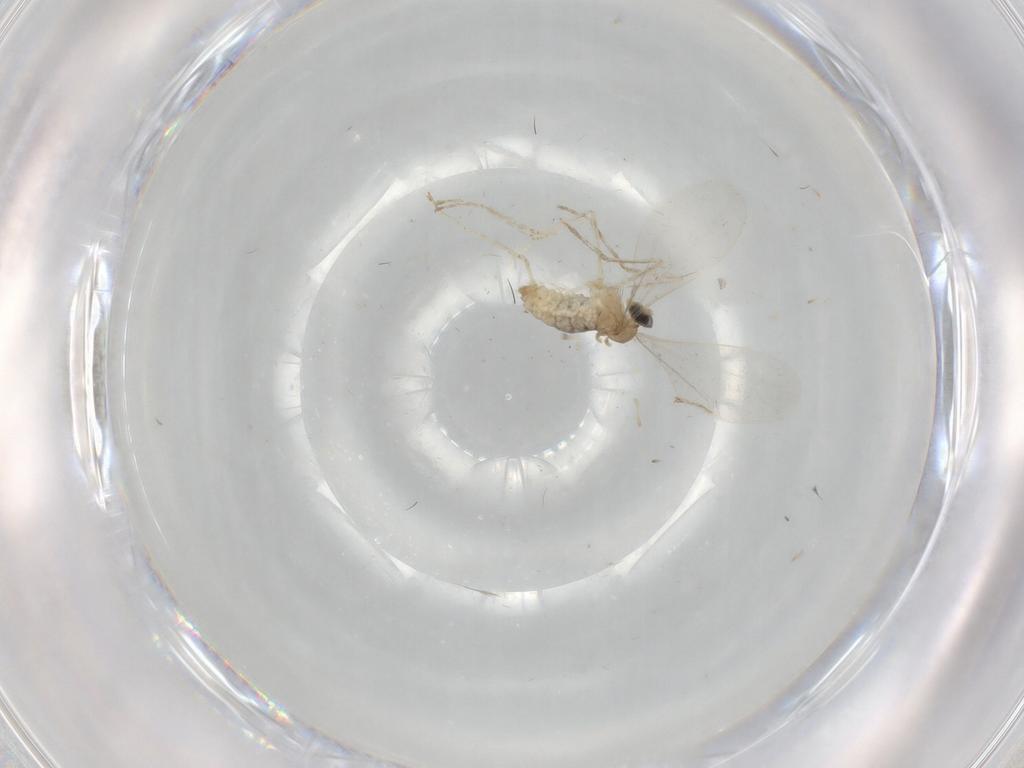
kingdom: Animalia
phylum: Arthropoda
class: Insecta
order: Diptera
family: Cecidomyiidae
